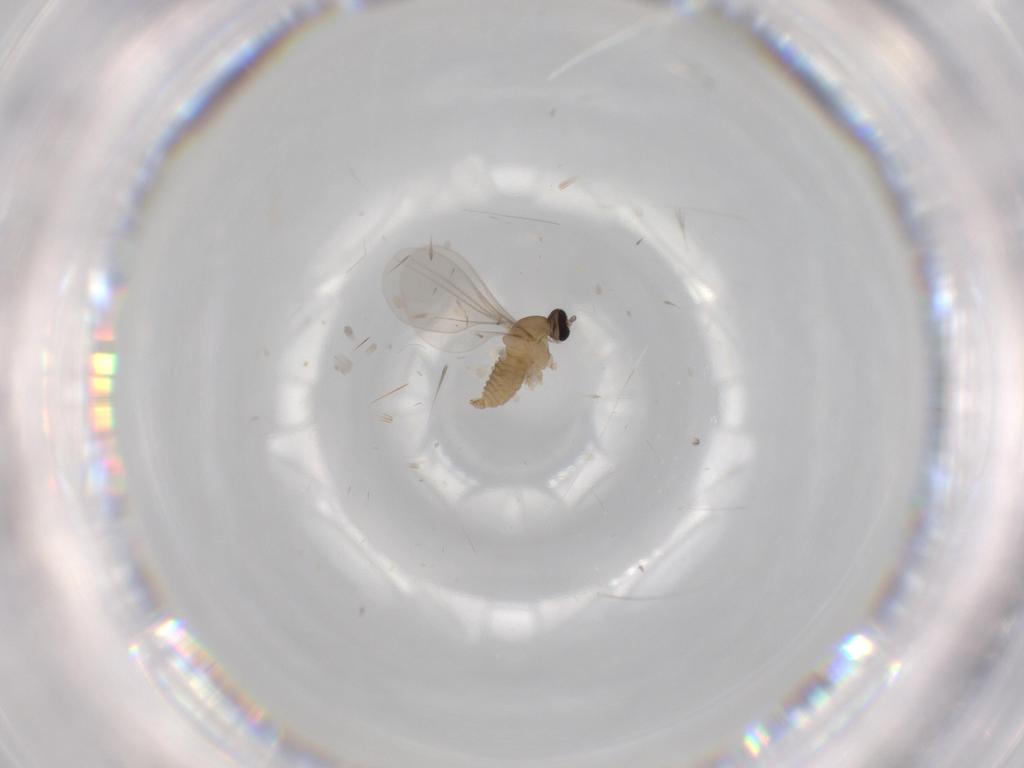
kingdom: Animalia
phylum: Arthropoda
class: Insecta
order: Diptera
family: Cecidomyiidae
